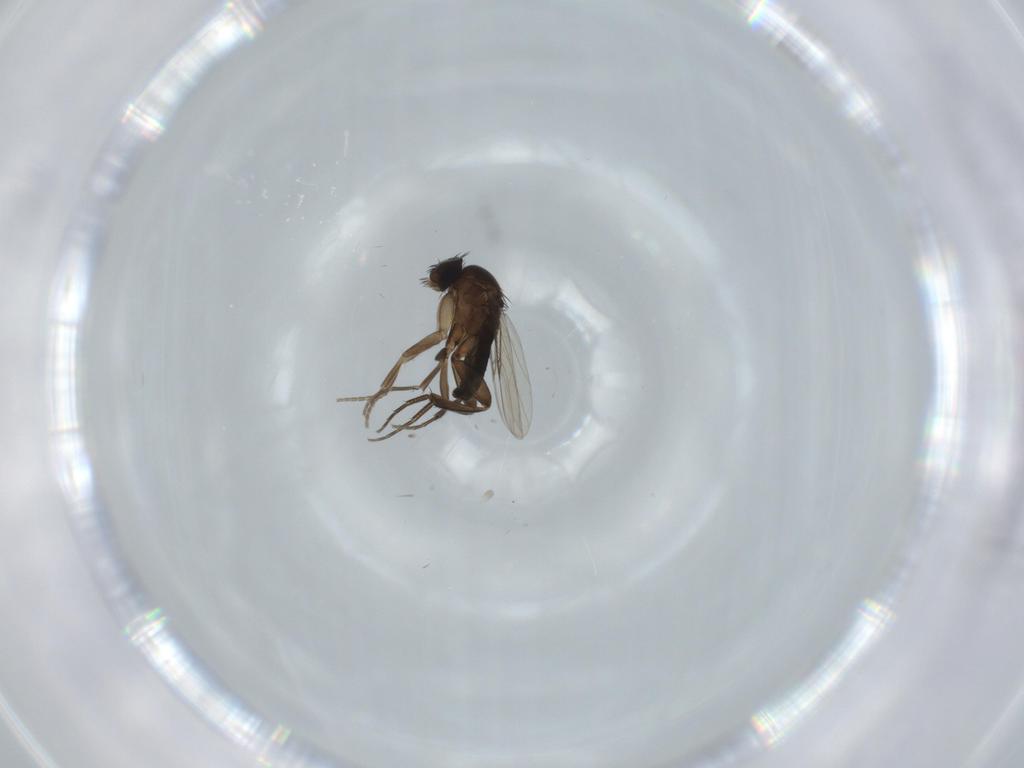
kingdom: Animalia
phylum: Arthropoda
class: Insecta
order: Diptera
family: Phoridae
